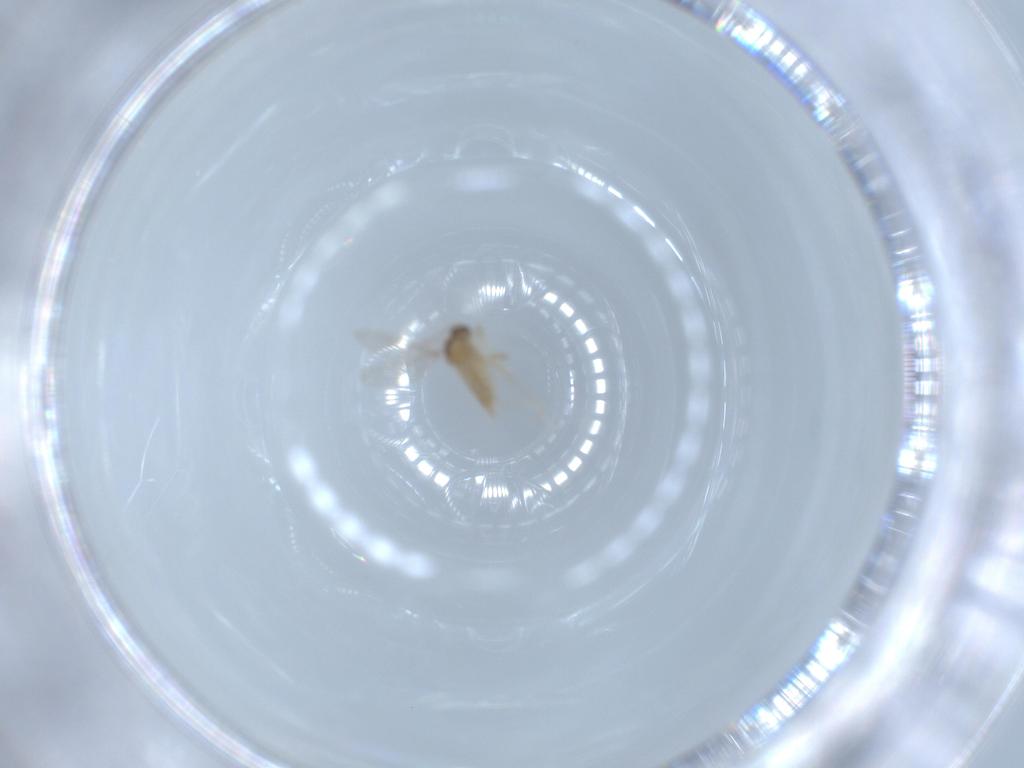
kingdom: Animalia
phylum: Arthropoda
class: Insecta
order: Diptera
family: Cecidomyiidae
